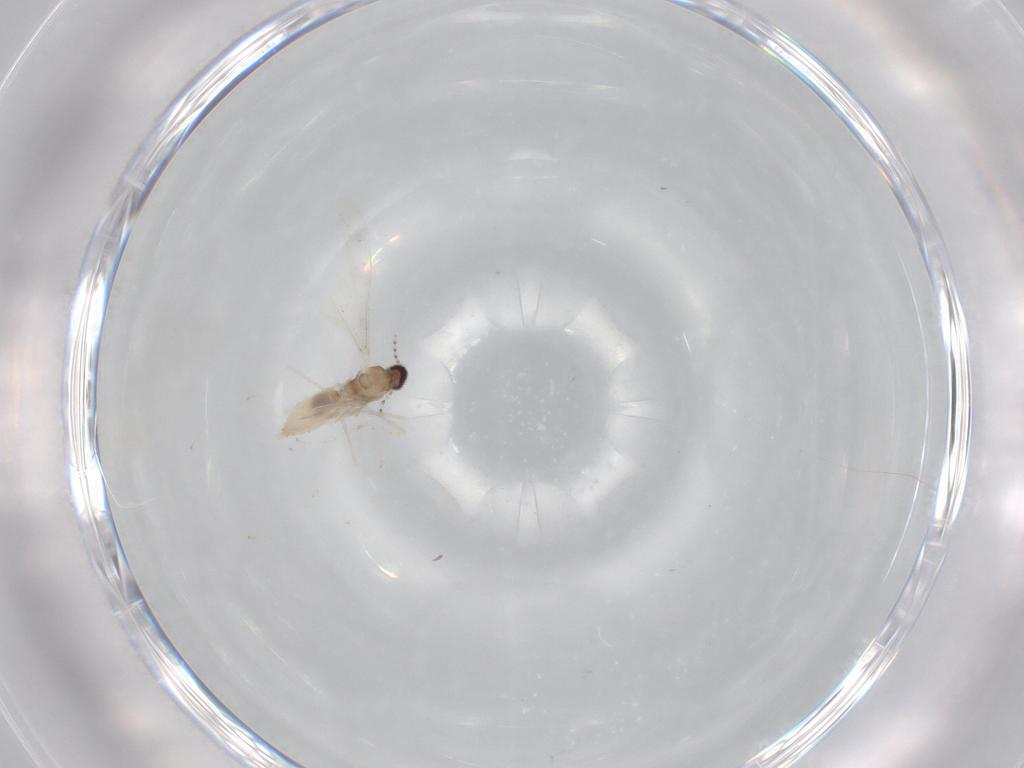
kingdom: Animalia
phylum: Arthropoda
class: Insecta
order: Diptera
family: Cecidomyiidae
